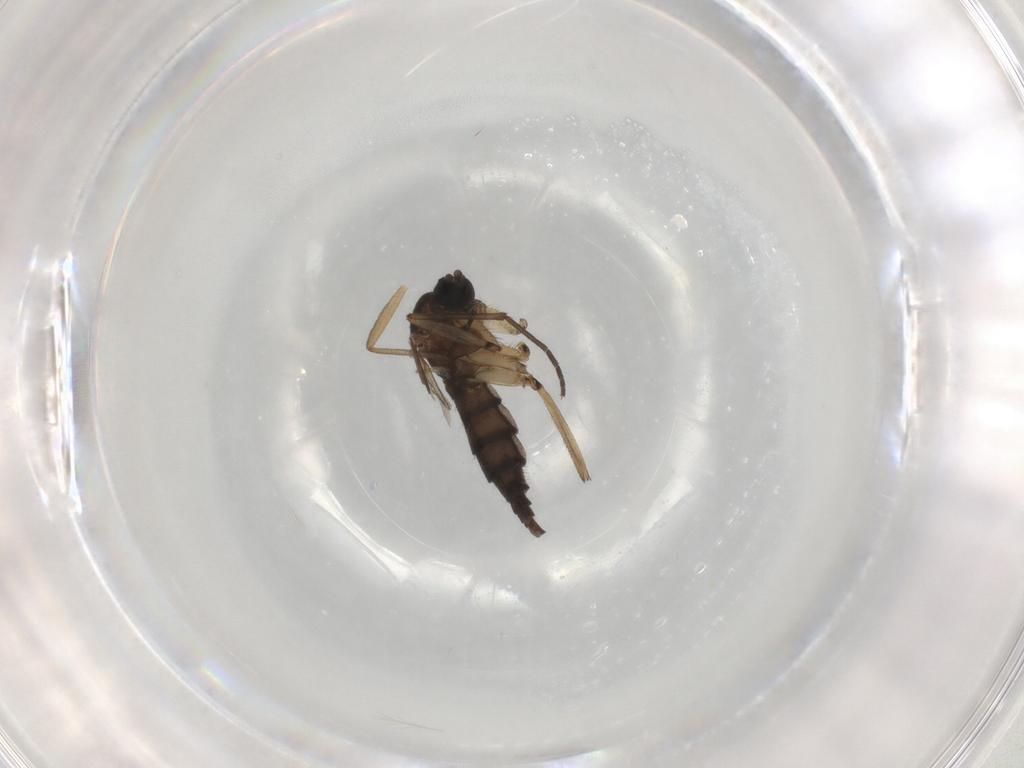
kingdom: Animalia
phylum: Arthropoda
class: Insecta
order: Diptera
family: Sciaridae
